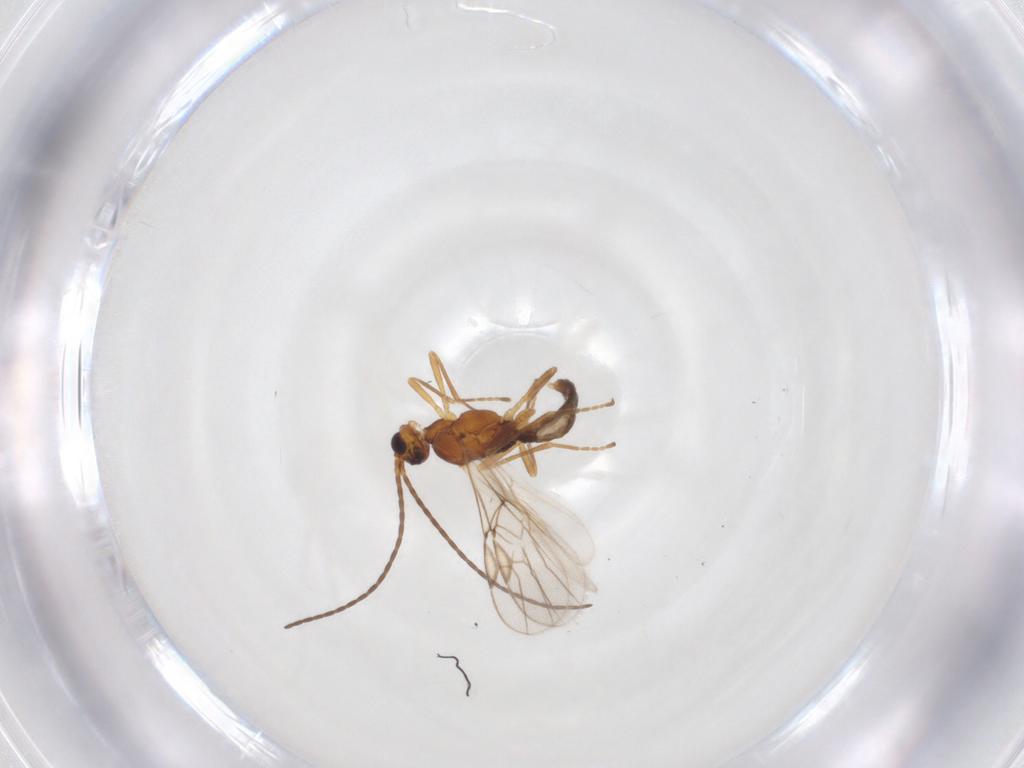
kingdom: Animalia
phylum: Arthropoda
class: Insecta
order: Hymenoptera
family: Braconidae
